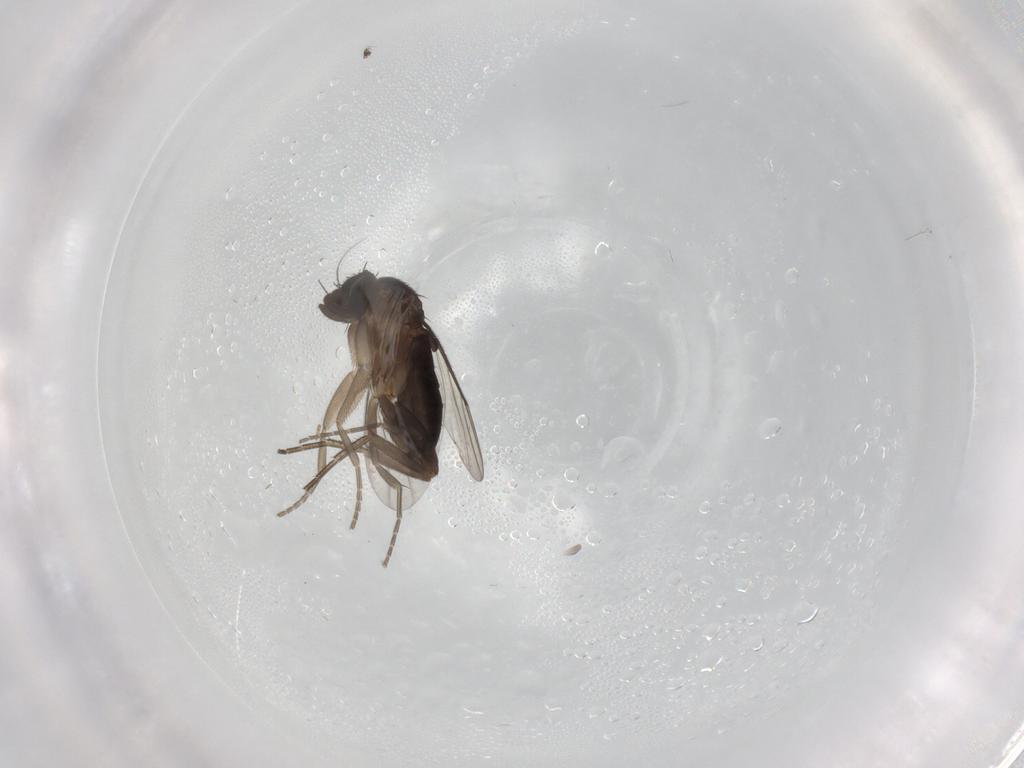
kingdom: Animalia
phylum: Arthropoda
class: Insecta
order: Diptera
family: Phoridae
